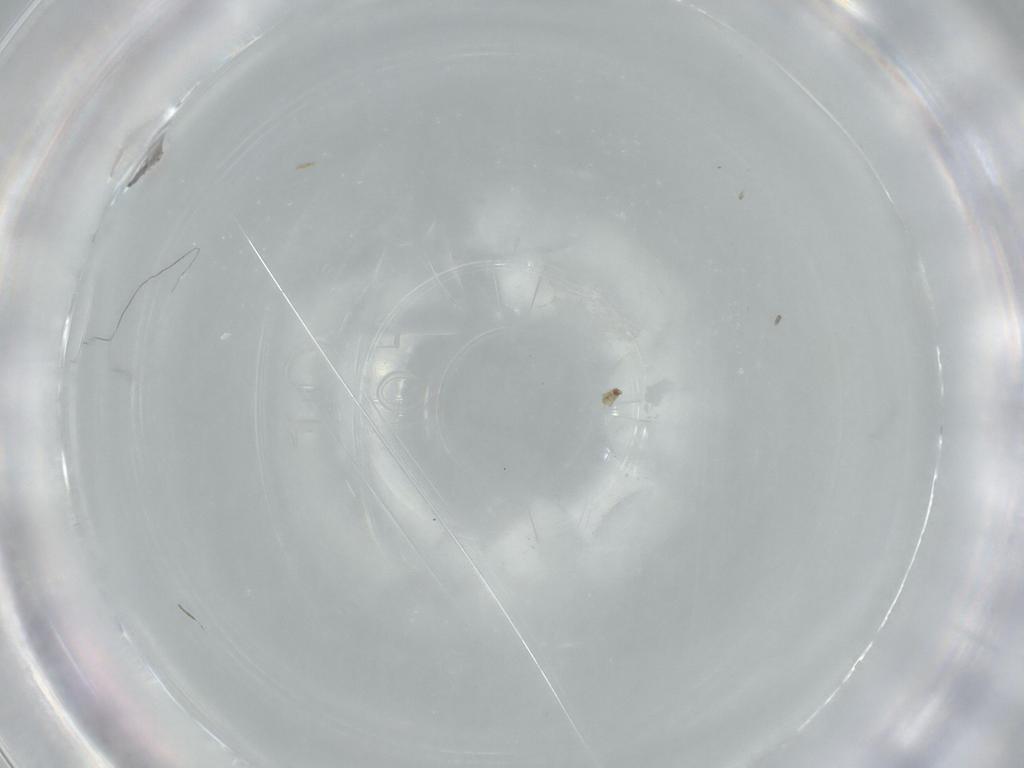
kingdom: Animalia
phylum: Arthropoda
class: Insecta
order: Diptera
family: Cecidomyiidae
